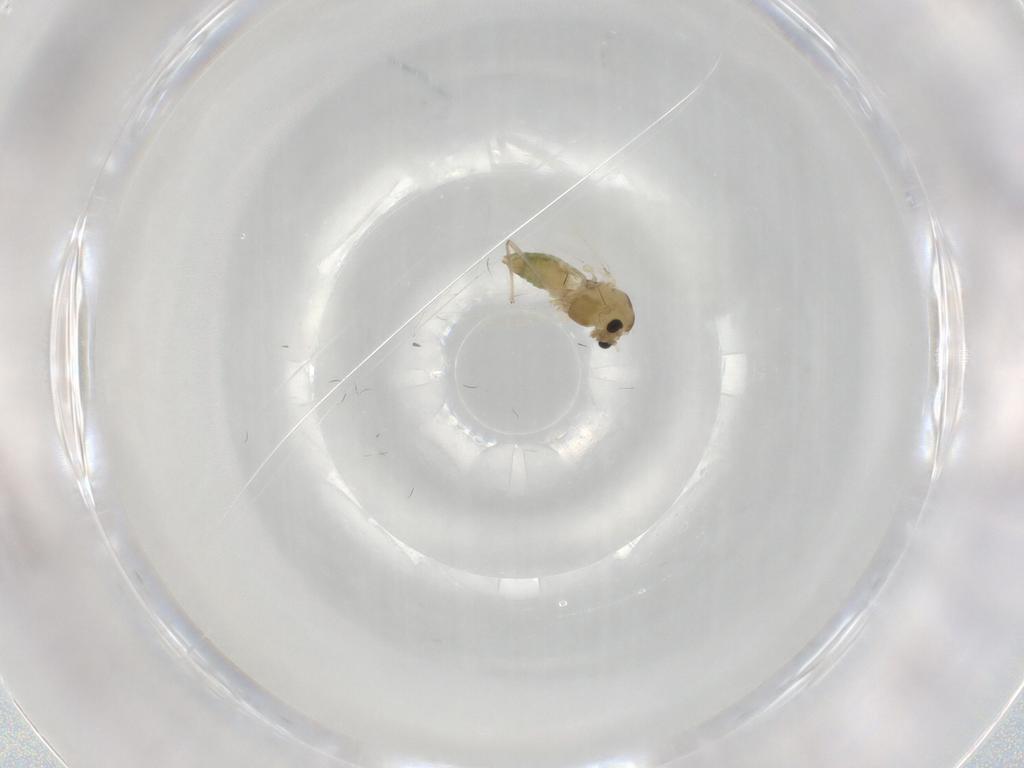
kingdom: Animalia
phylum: Arthropoda
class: Insecta
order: Diptera
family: Chironomidae
